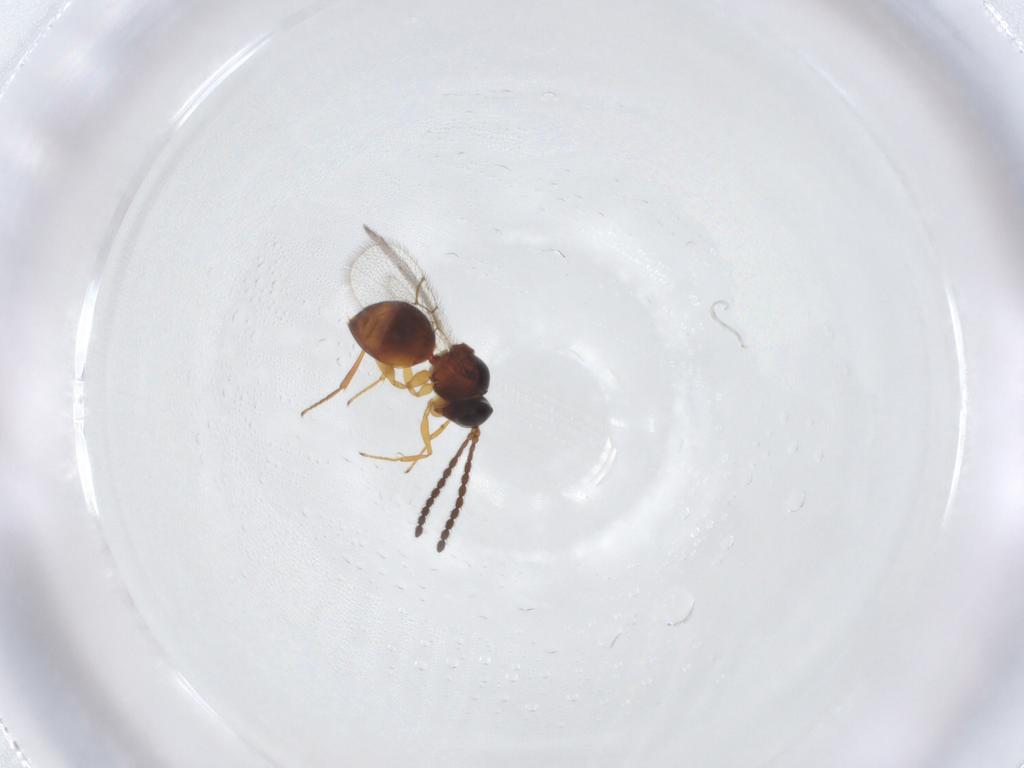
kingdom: Animalia
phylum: Arthropoda
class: Insecta
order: Hymenoptera
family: Figitidae
